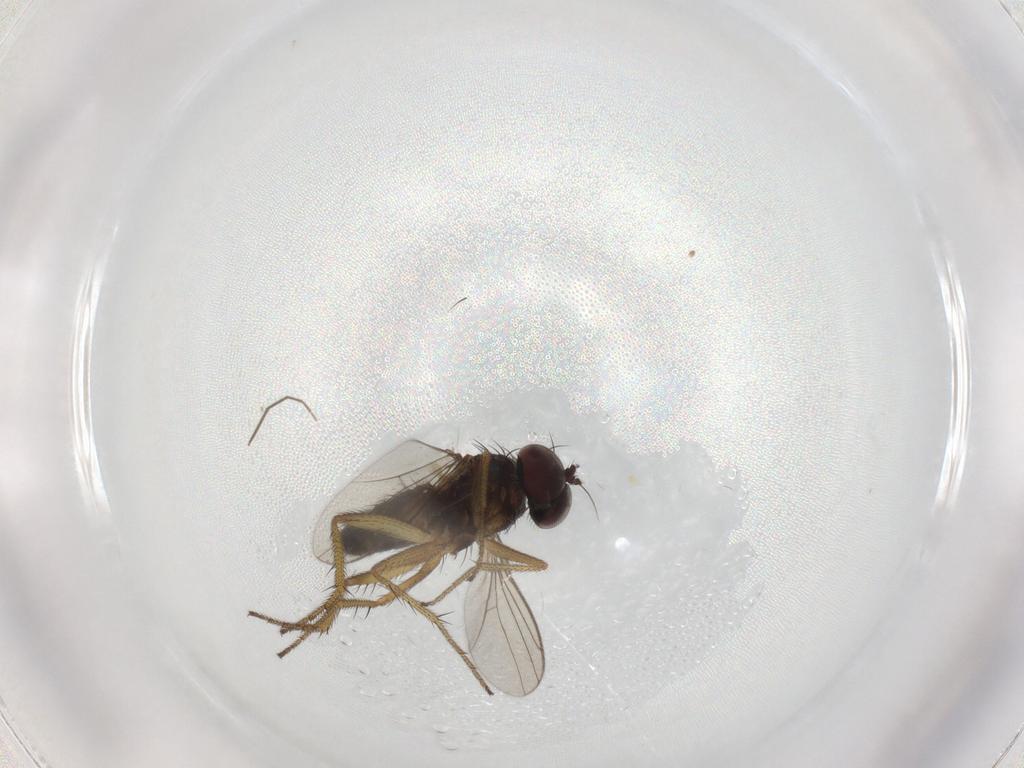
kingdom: Animalia
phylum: Arthropoda
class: Insecta
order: Diptera
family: Chironomidae
